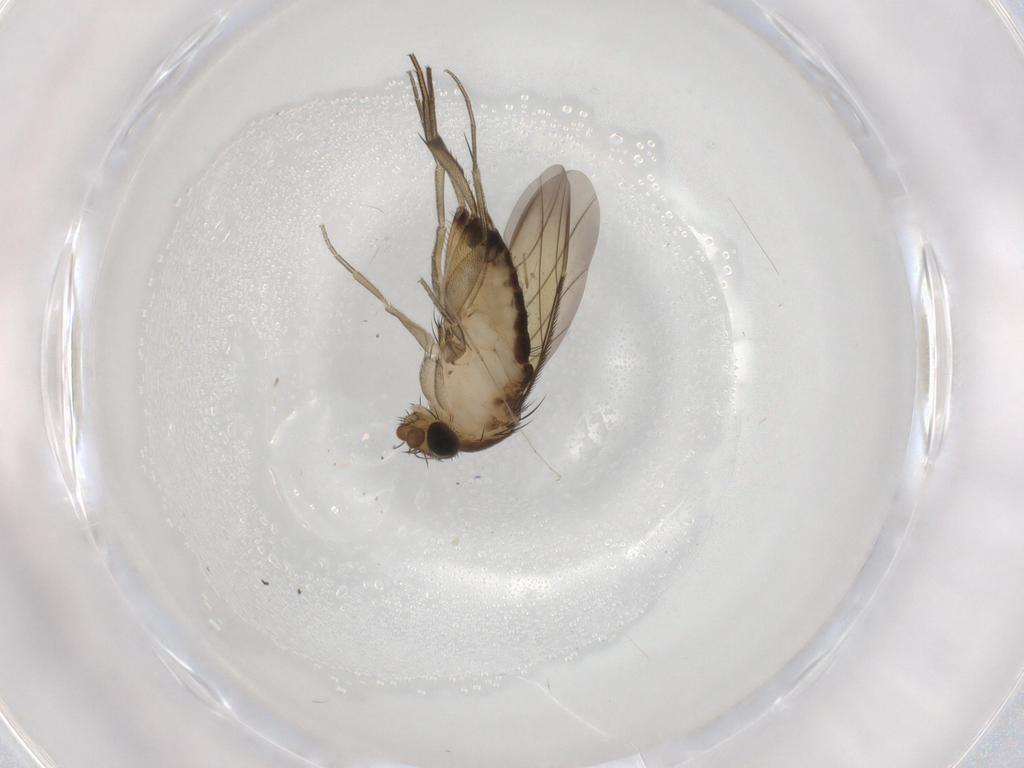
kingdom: Animalia
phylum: Arthropoda
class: Insecta
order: Diptera
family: Phoridae
